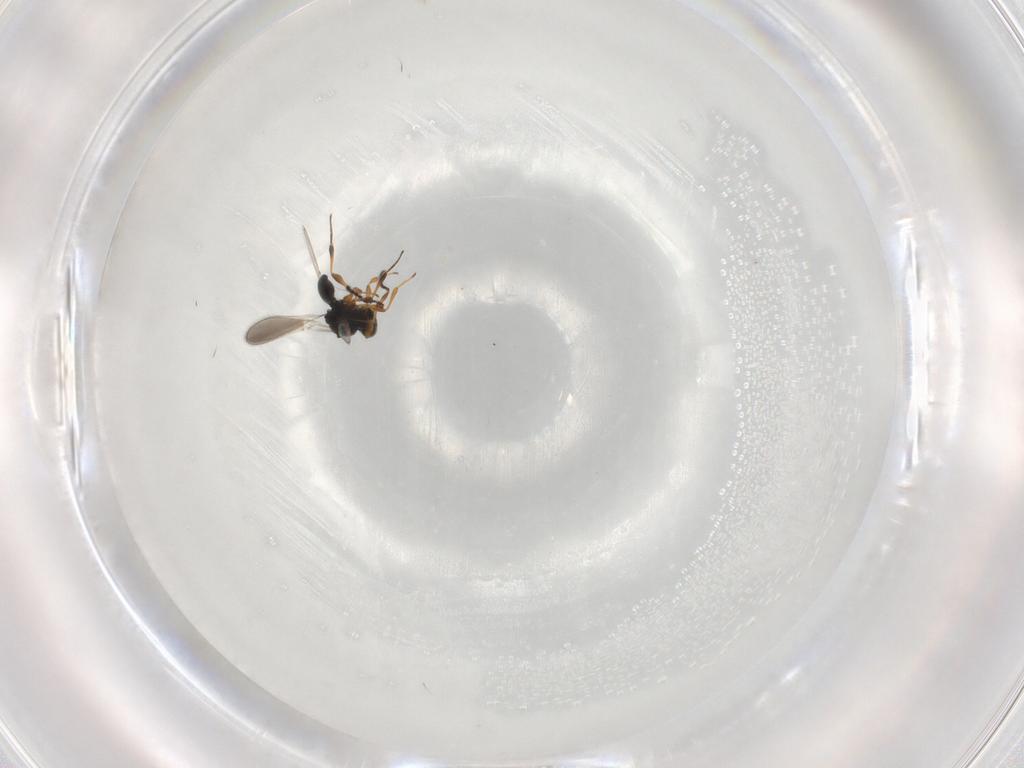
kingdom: Animalia
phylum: Arthropoda
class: Insecta
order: Hymenoptera
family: Platygastridae
